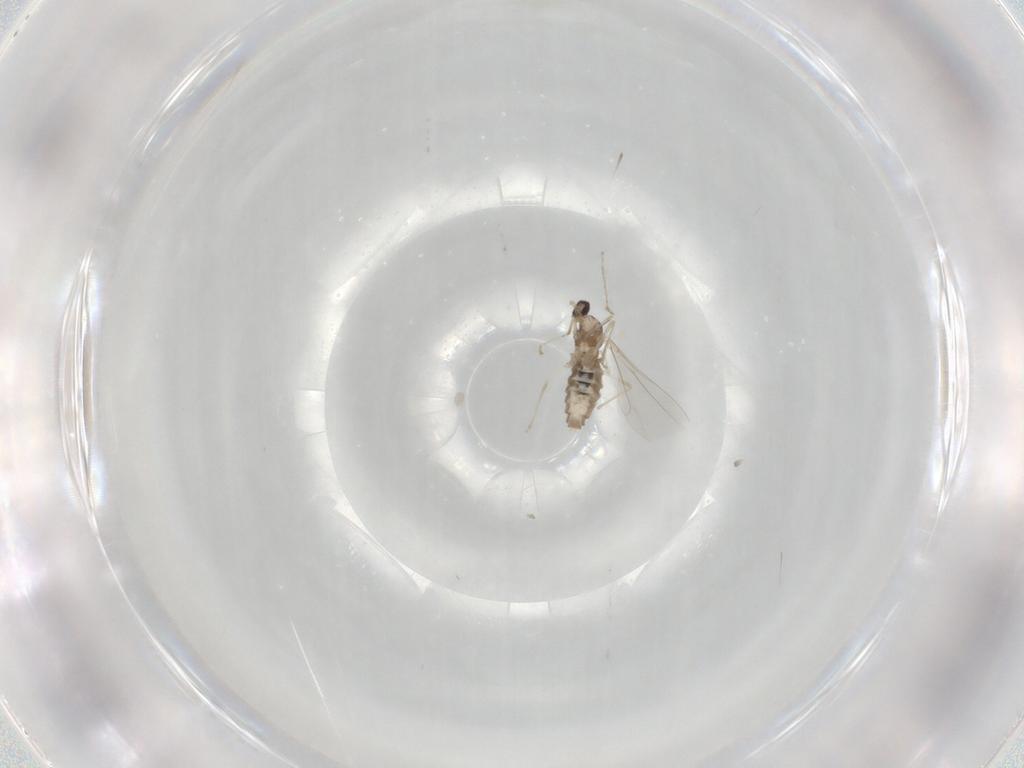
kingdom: Animalia
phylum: Arthropoda
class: Insecta
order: Diptera
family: Cecidomyiidae
